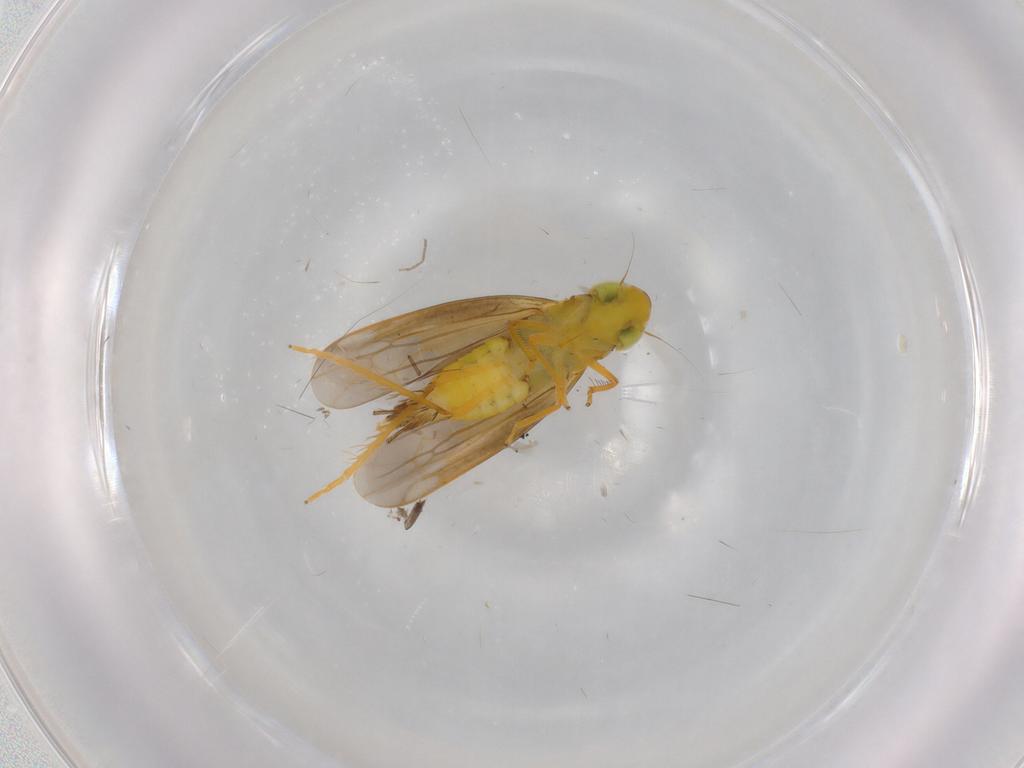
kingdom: Animalia
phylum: Arthropoda
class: Insecta
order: Hemiptera
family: Cicadellidae
